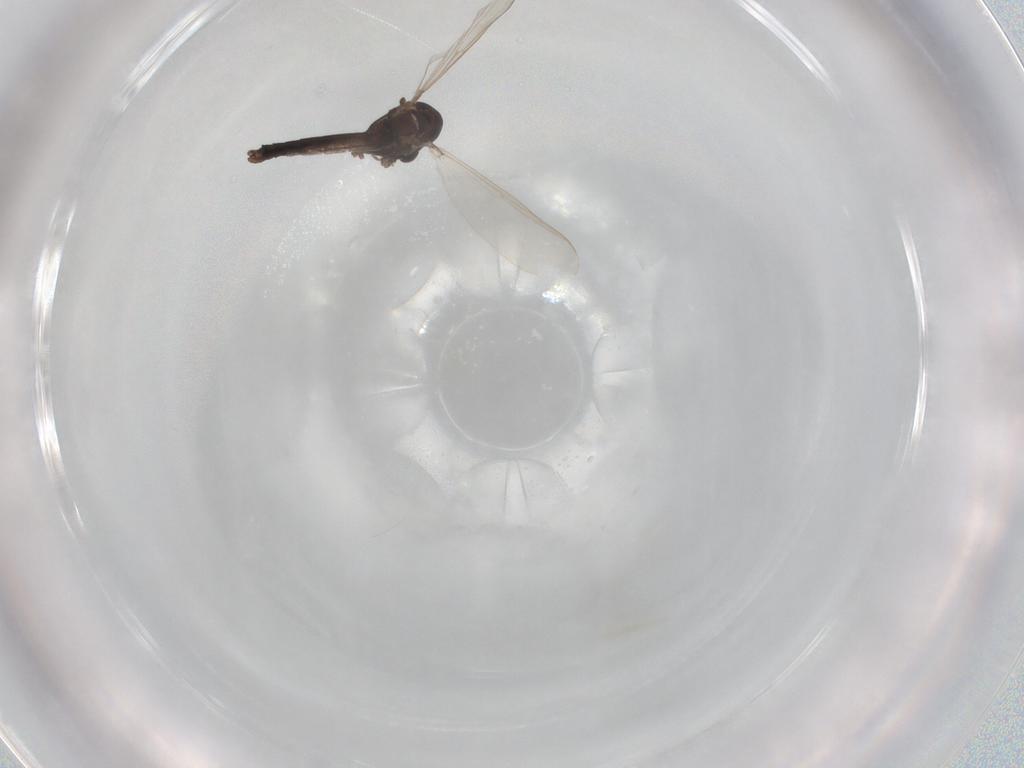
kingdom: Animalia
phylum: Arthropoda
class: Insecta
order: Diptera
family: Chironomidae
